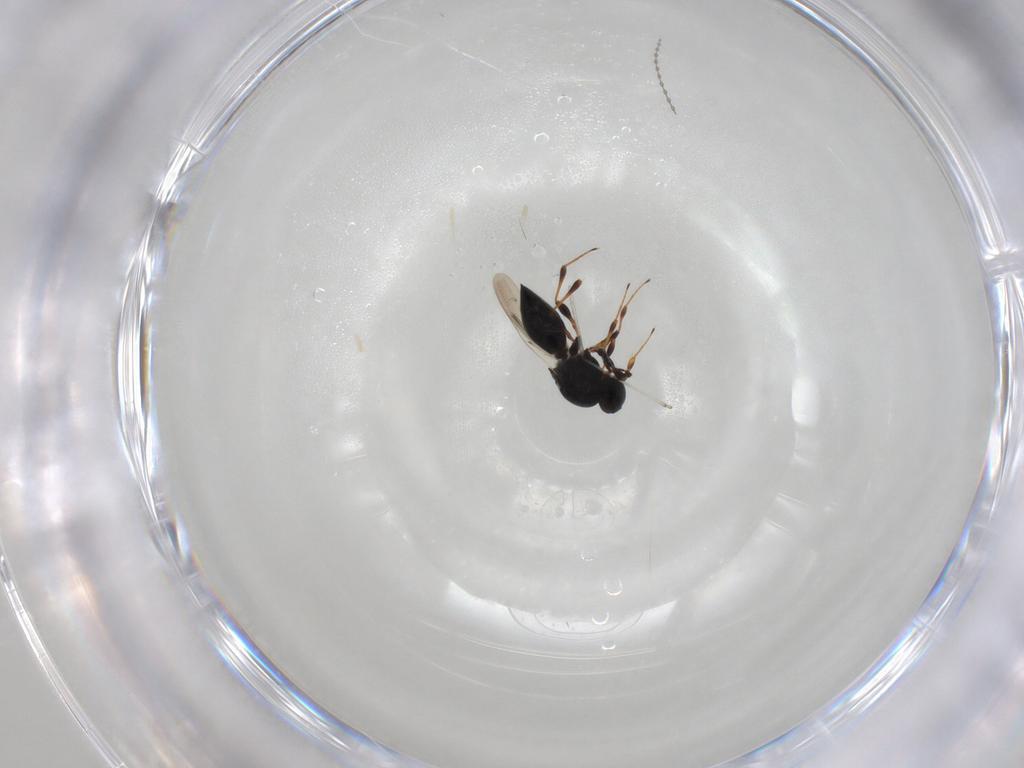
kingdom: Animalia
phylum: Arthropoda
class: Insecta
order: Hymenoptera
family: Platygastridae
